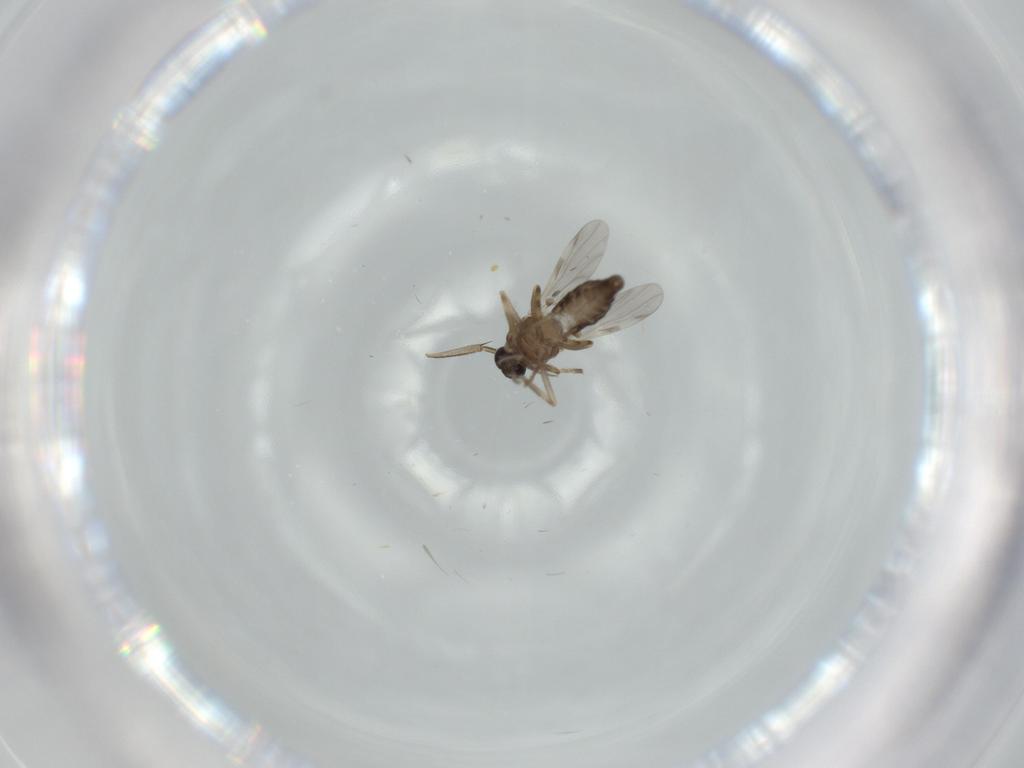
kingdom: Animalia
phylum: Arthropoda
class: Insecta
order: Diptera
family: Ceratopogonidae
